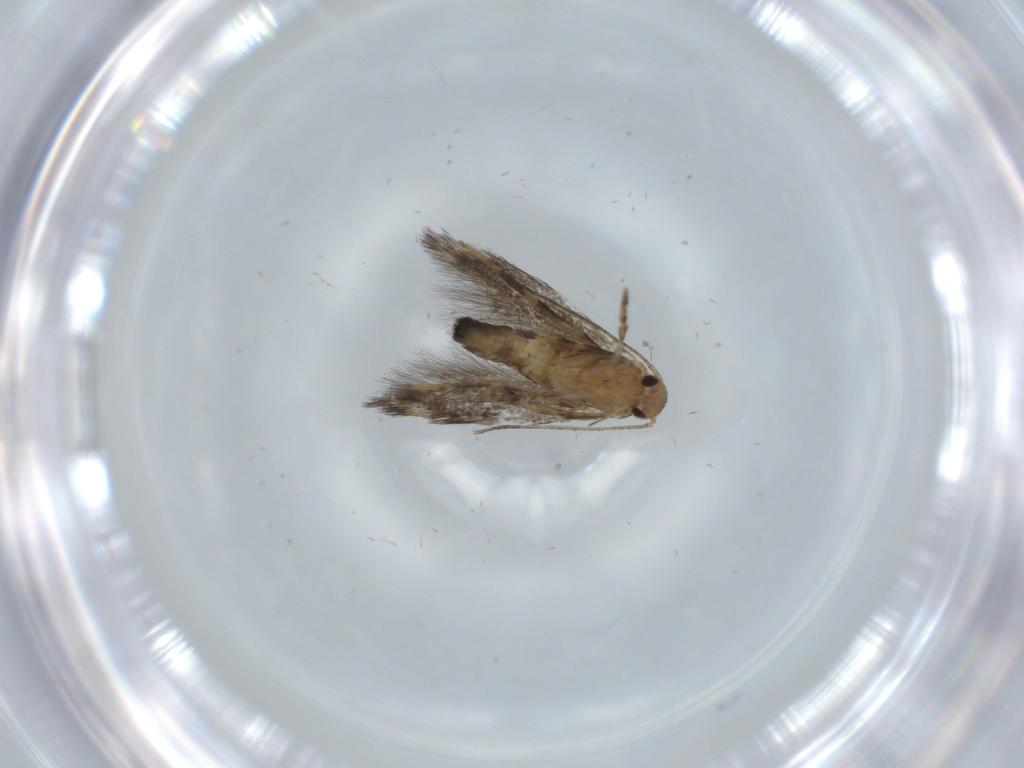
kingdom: Animalia
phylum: Arthropoda
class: Insecta
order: Lepidoptera
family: Cosmopterigidae
